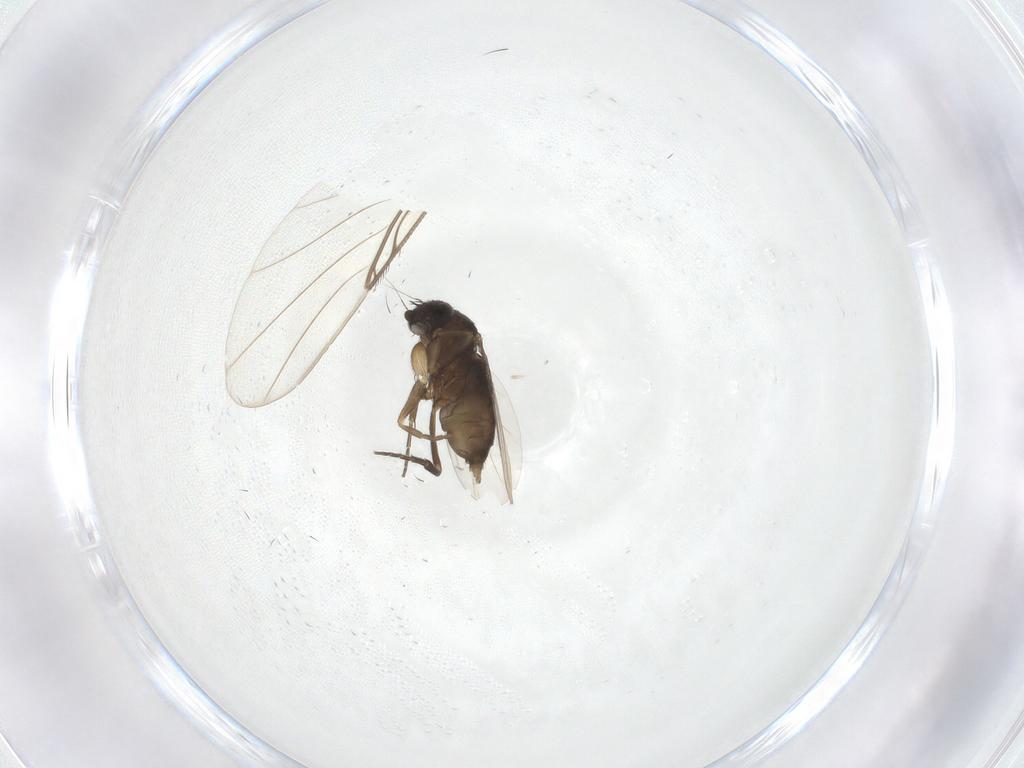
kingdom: Animalia
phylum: Arthropoda
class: Insecta
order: Diptera
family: Phoridae
